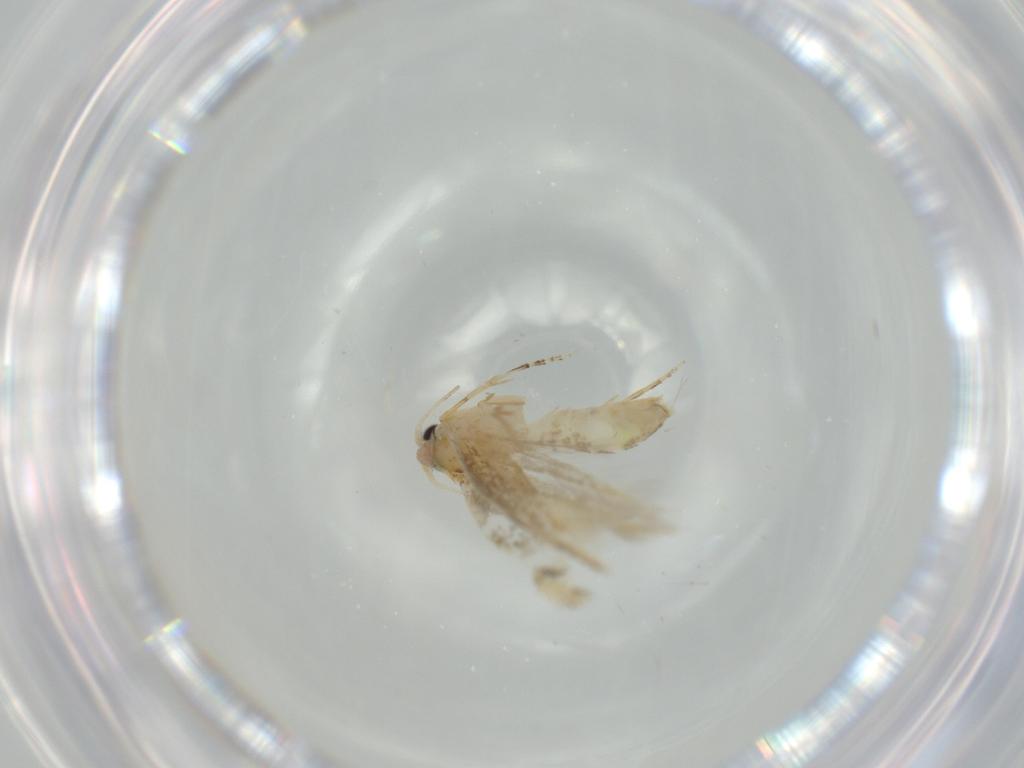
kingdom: Animalia
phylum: Arthropoda
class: Insecta
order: Lepidoptera
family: Bucculatricidae
